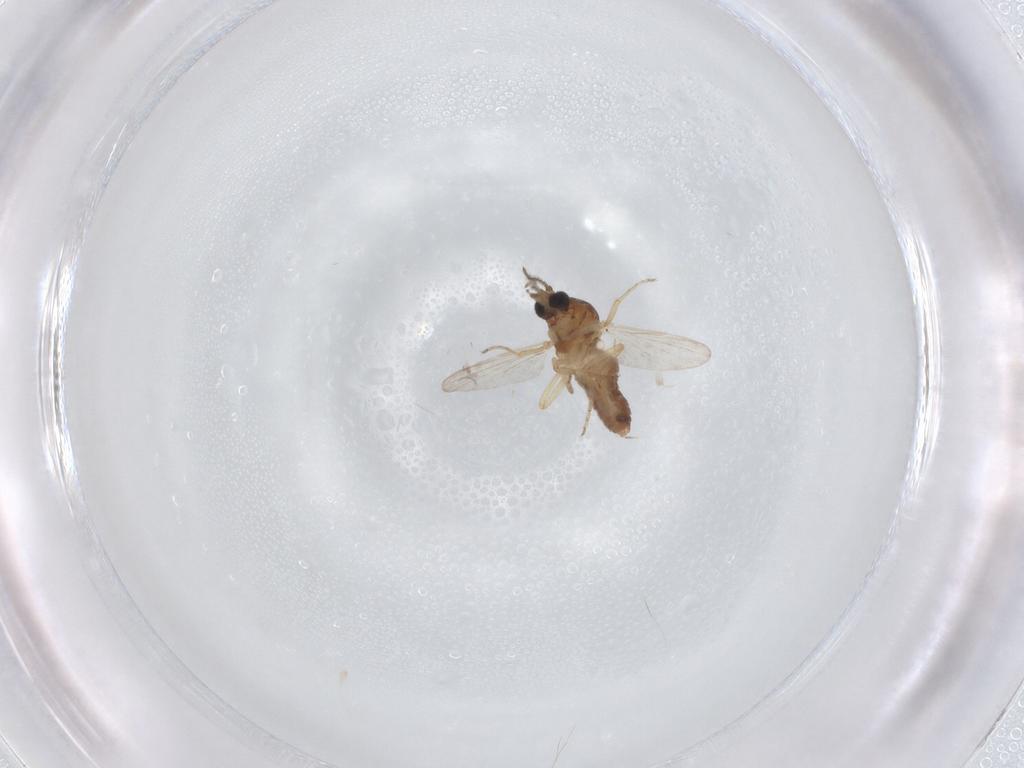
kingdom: Animalia
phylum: Arthropoda
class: Insecta
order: Diptera
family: Ceratopogonidae
